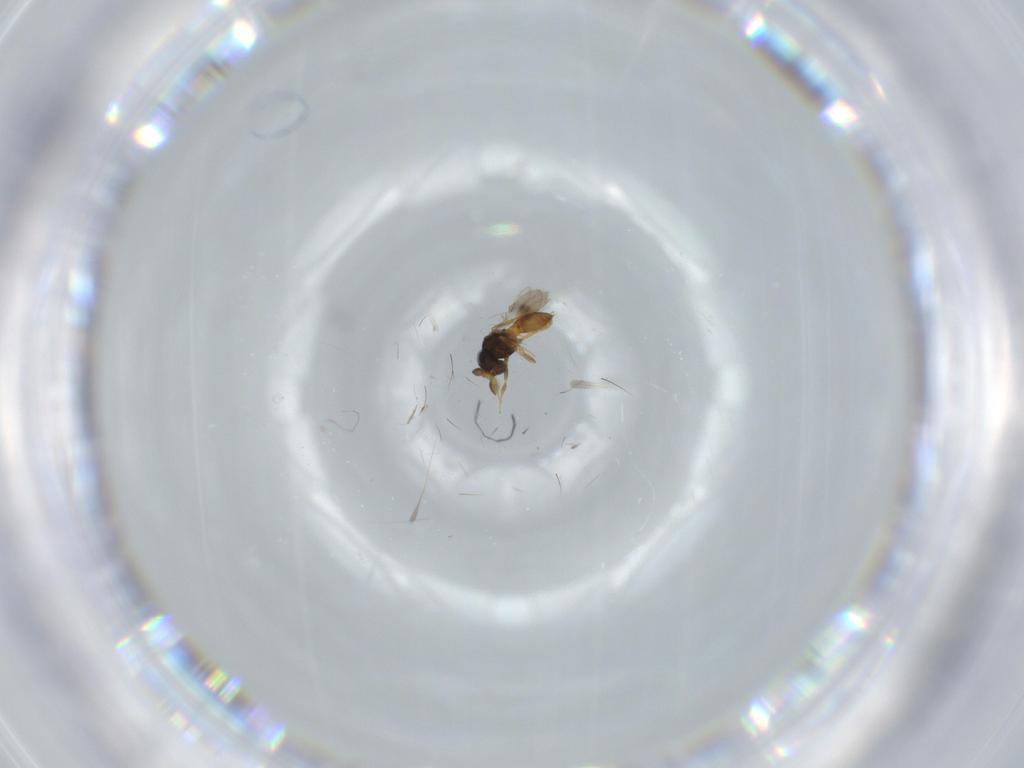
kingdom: Animalia
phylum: Arthropoda
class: Insecta
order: Hymenoptera
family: Scelionidae
